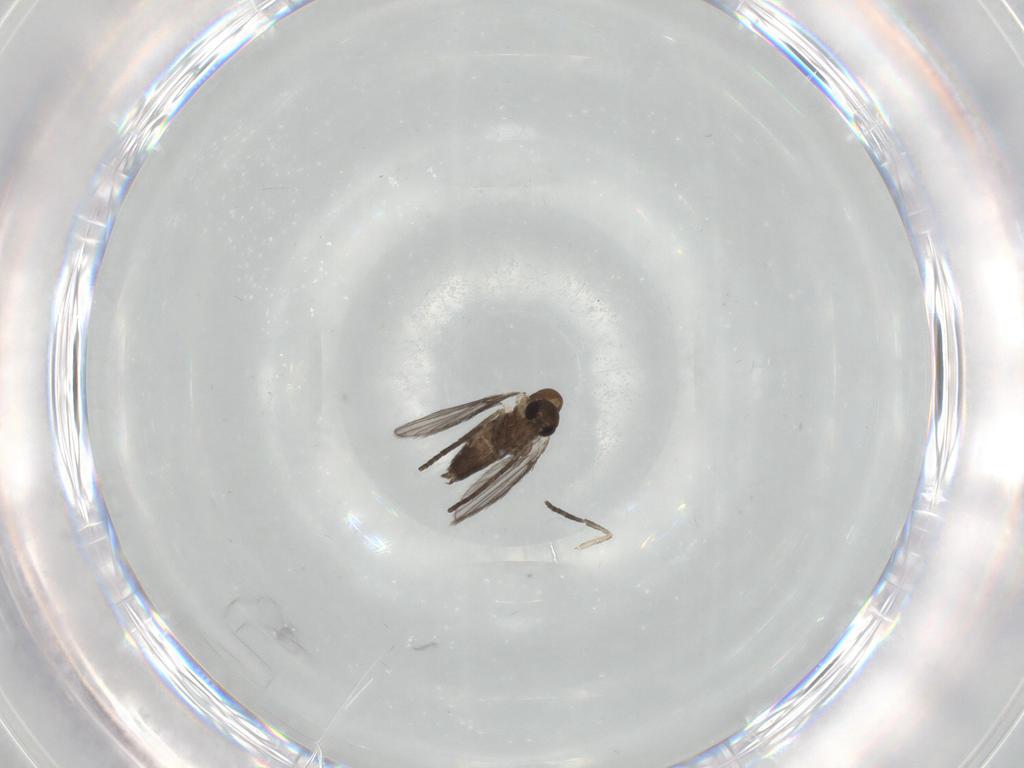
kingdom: Animalia
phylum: Arthropoda
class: Insecta
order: Diptera
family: Limoniidae
